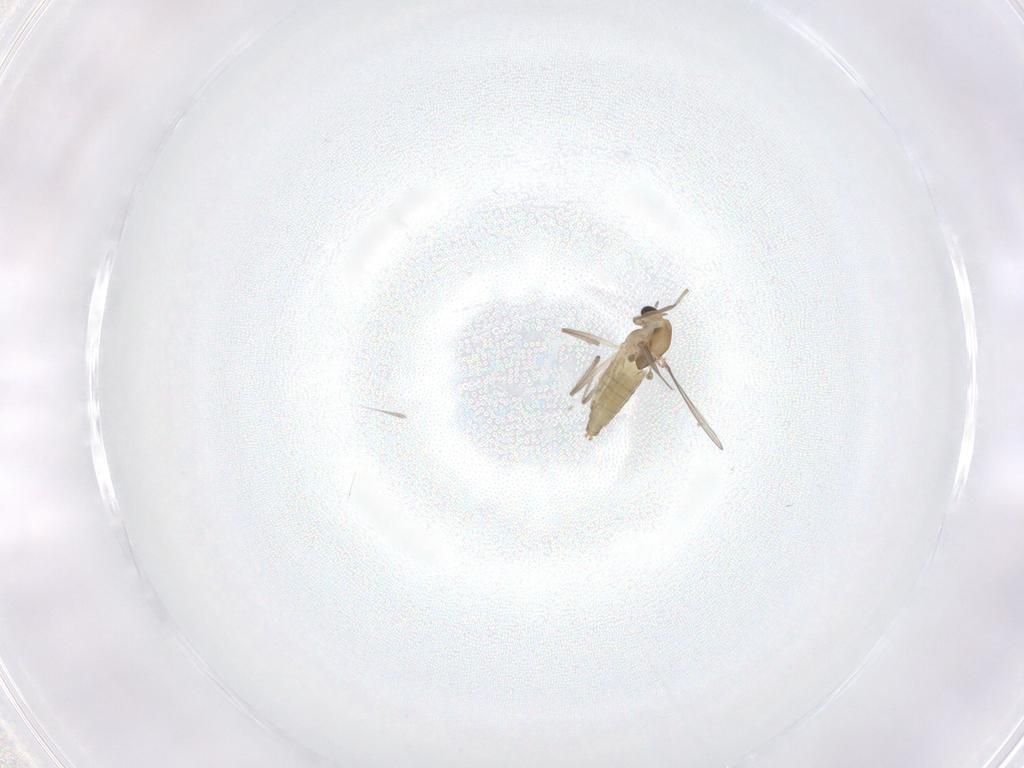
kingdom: Animalia
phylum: Arthropoda
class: Insecta
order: Diptera
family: Chironomidae
